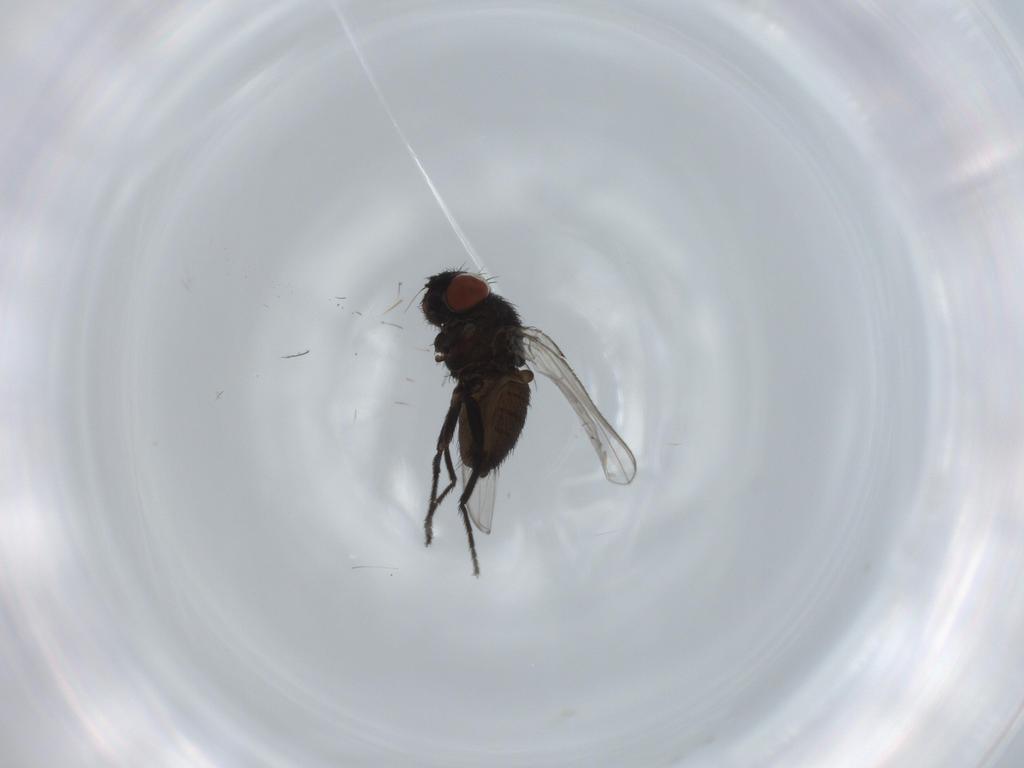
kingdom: Animalia
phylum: Arthropoda
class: Insecta
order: Diptera
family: Milichiidae
